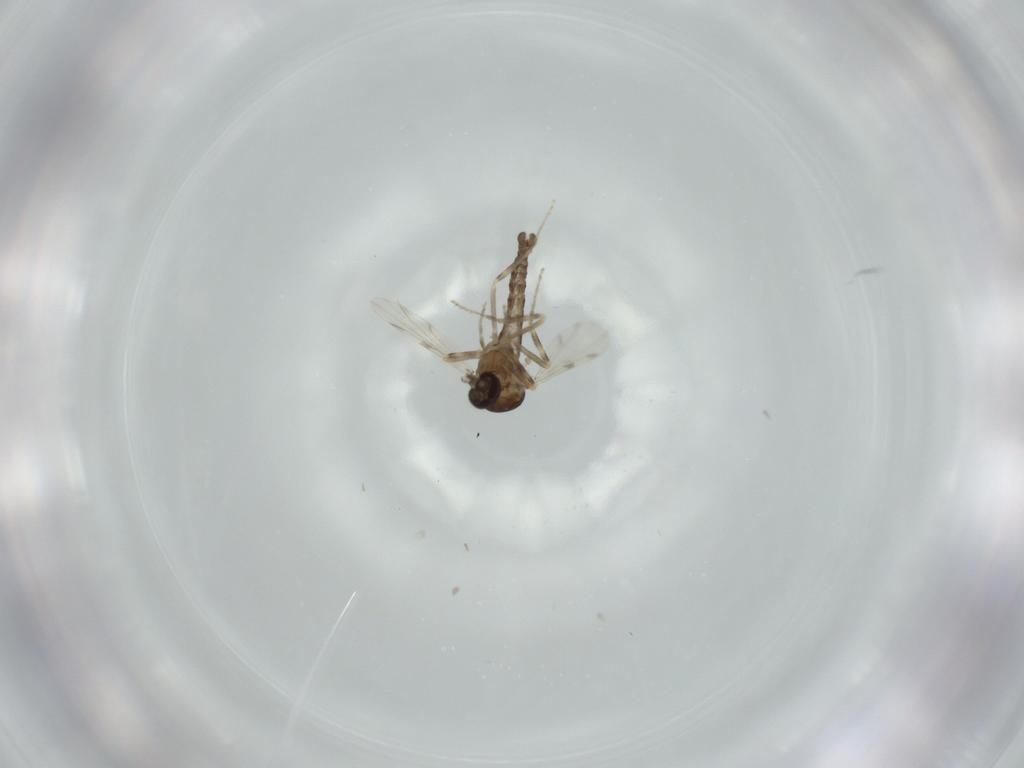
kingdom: Animalia
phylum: Arthropoda
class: Insecta
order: Diptera
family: Ceratopogonidae
